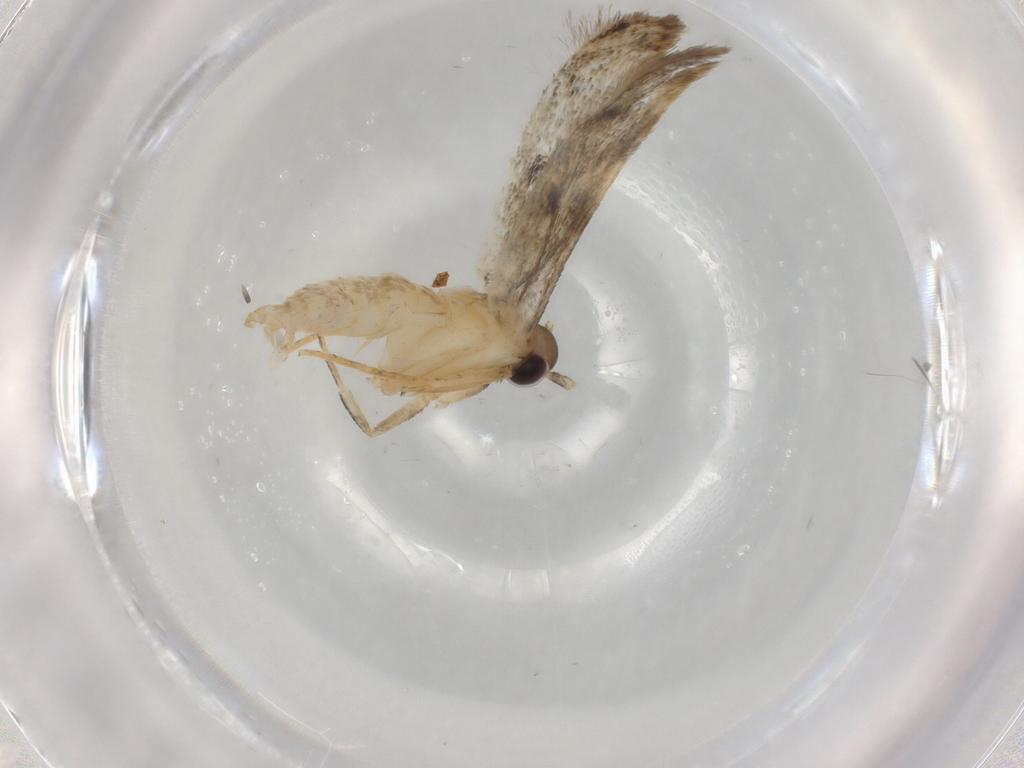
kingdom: Animalia
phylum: Arthropoda
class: Insecta
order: Lepidoptera
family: Autostichidae
